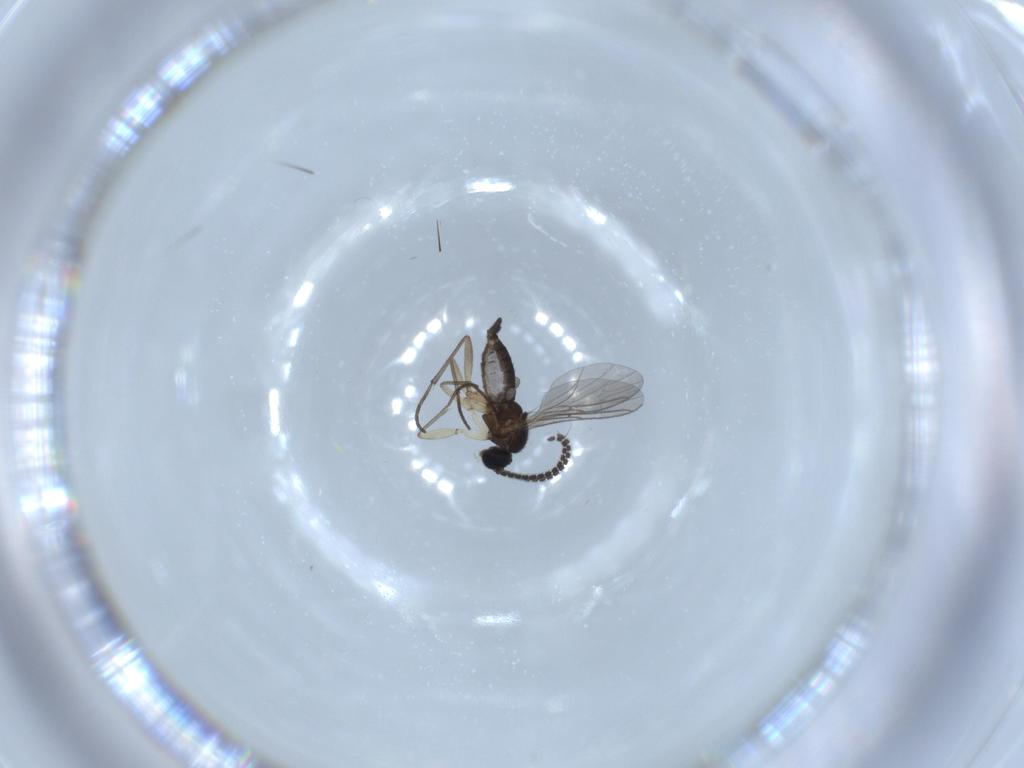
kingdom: Animalia
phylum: Arthropoda
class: Insecta
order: Diptera
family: Sciaridae
